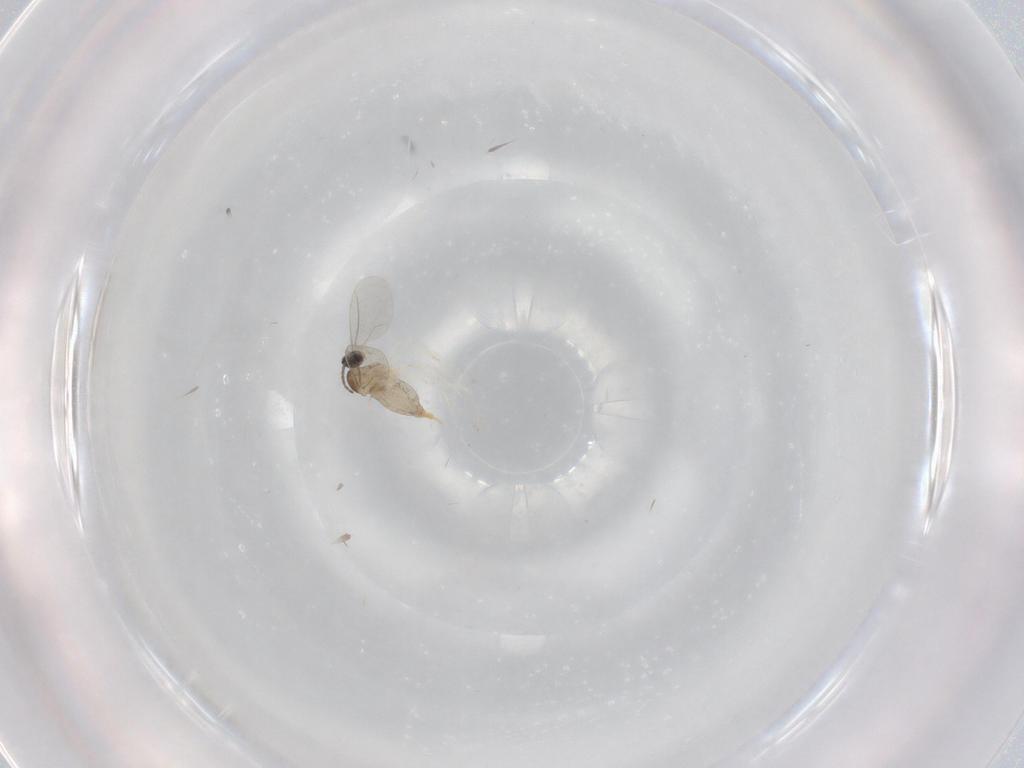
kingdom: Animalia
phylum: Arthropoda
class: Insecta
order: Diptera
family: Cecidomyiidae
